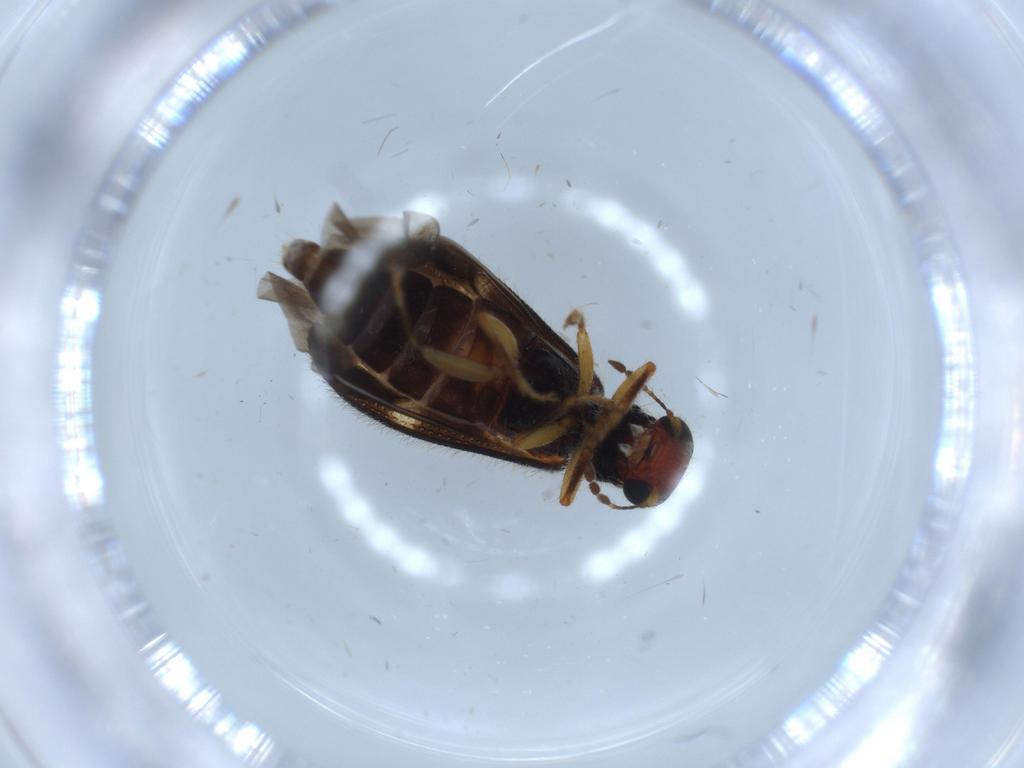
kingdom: Animalia
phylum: Arthropoda
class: Insecta
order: Coleoptera
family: Cleridae
